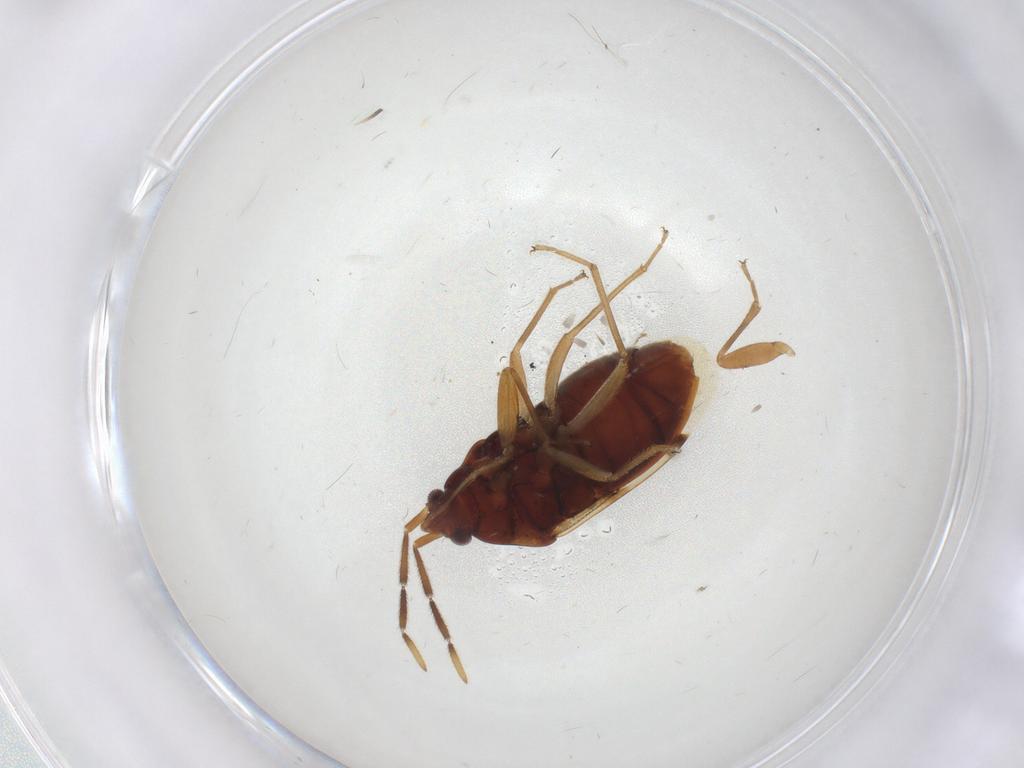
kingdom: Animalia
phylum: Arthropoda
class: Insecta
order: Hemiptera
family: Rhyparochromidae
